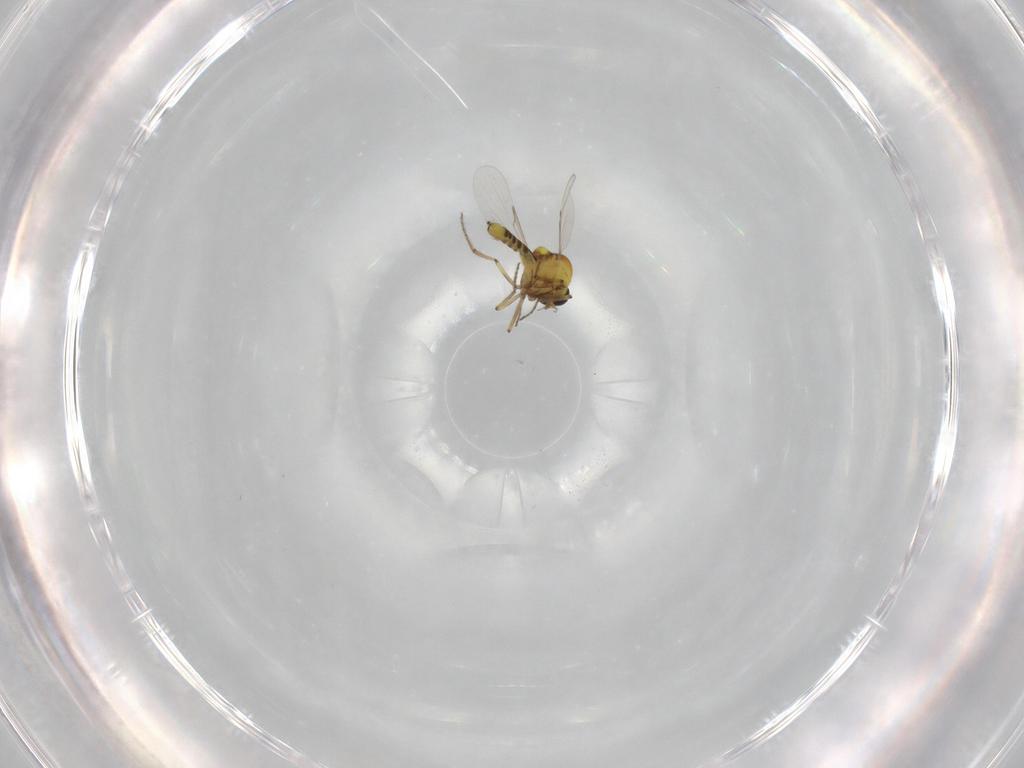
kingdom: Animalia
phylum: Arthropoda
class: Insecta
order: Diptera
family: Ceratopogonidae
